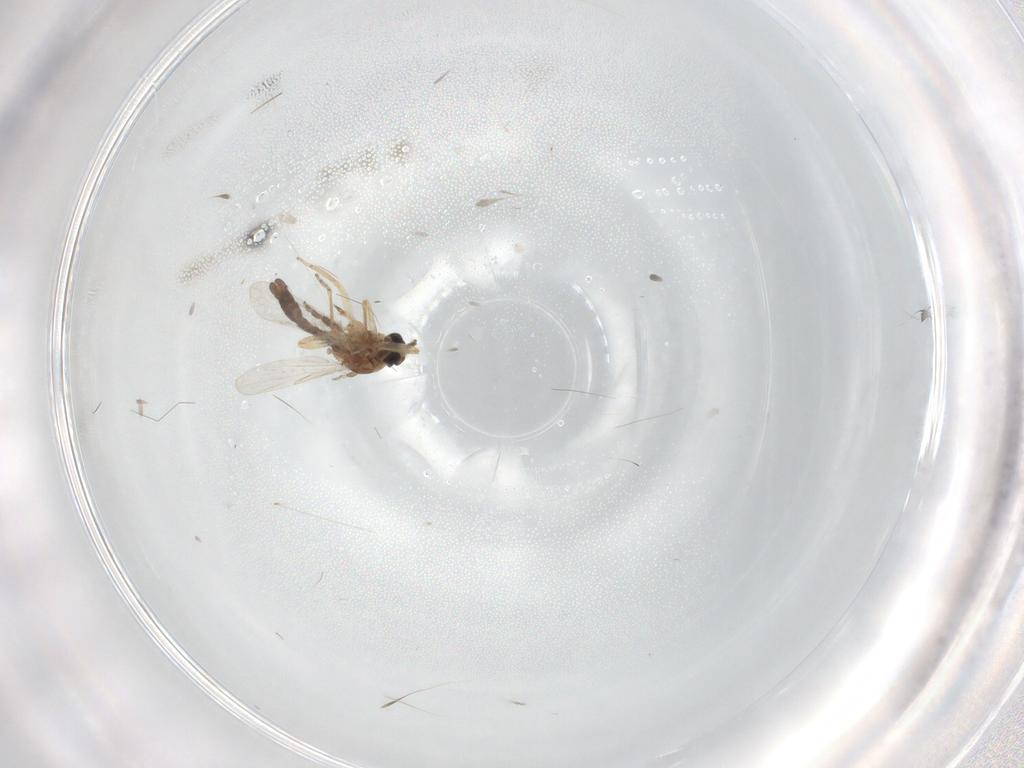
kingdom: Animalia
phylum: Arthropoda
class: Insecta
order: Diptera
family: Ceratopogonidae
